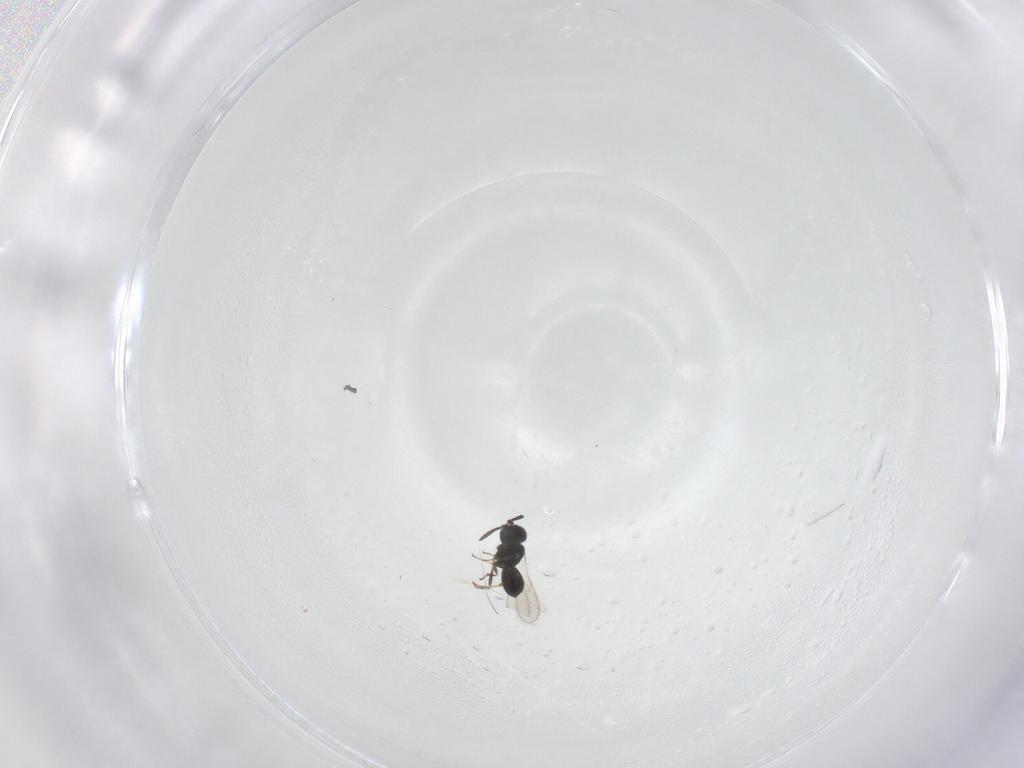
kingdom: Animalia
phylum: Arthropoda
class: Insecta
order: Hymenoptera
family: Scelionidae
